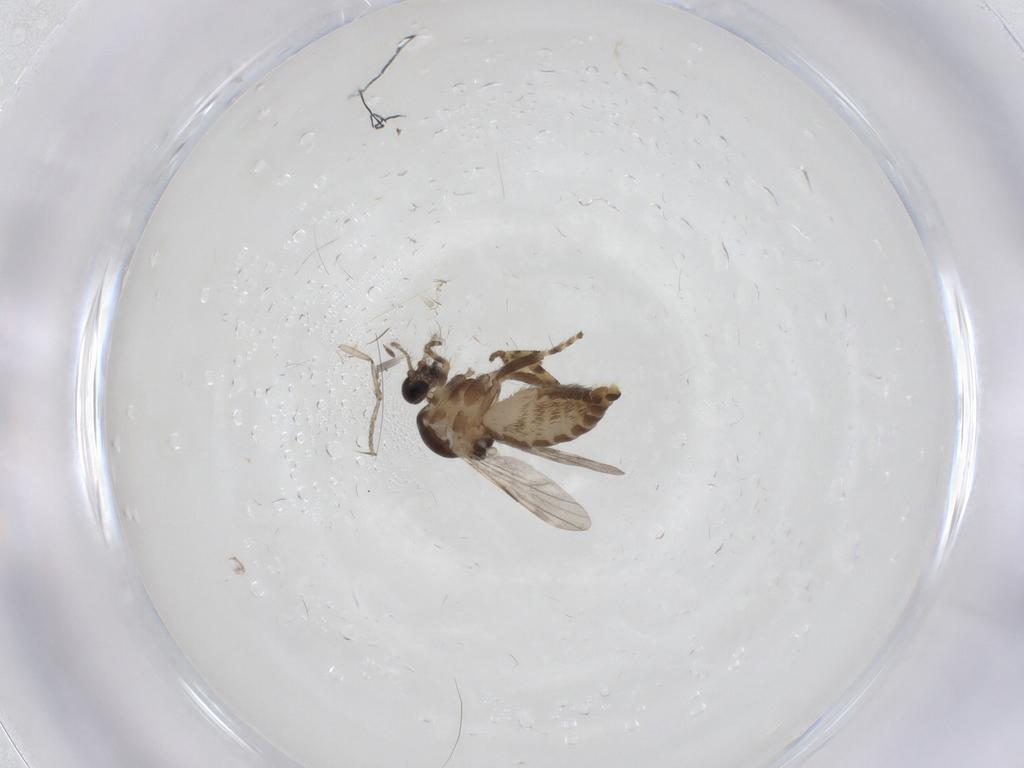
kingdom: Animalia
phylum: Arthropoda
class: Insecta
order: Diptera
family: Ceratopogonidae
